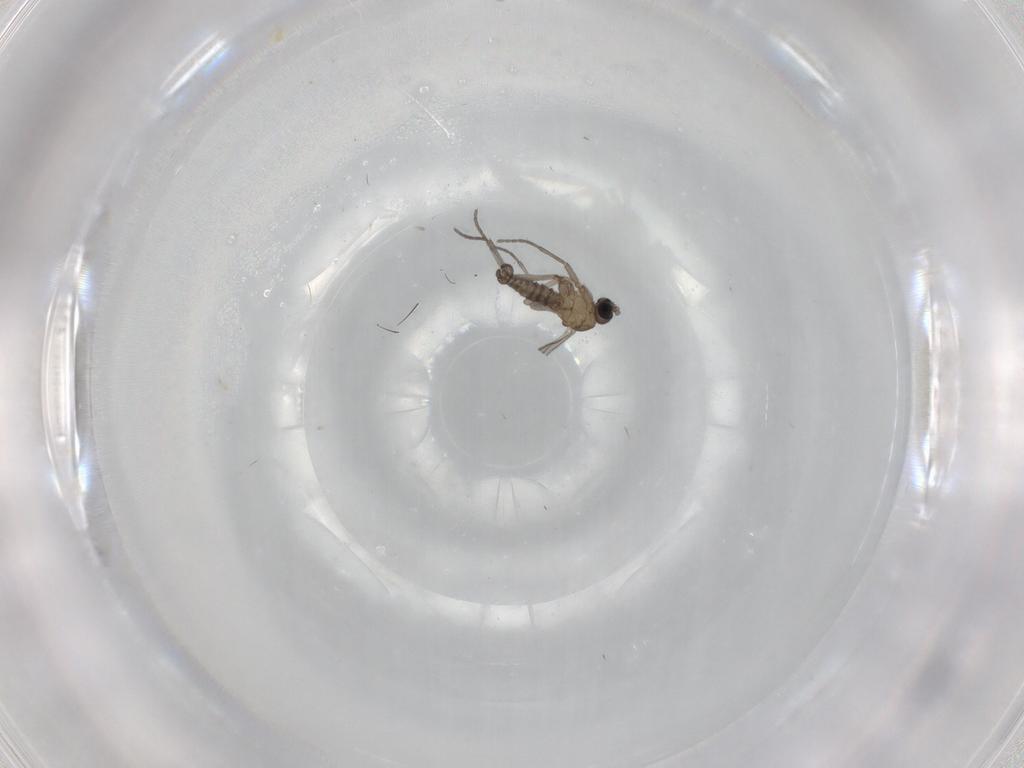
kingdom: Animalia
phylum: Arthropoda
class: Insecta
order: Diptera
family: Sciaridae
